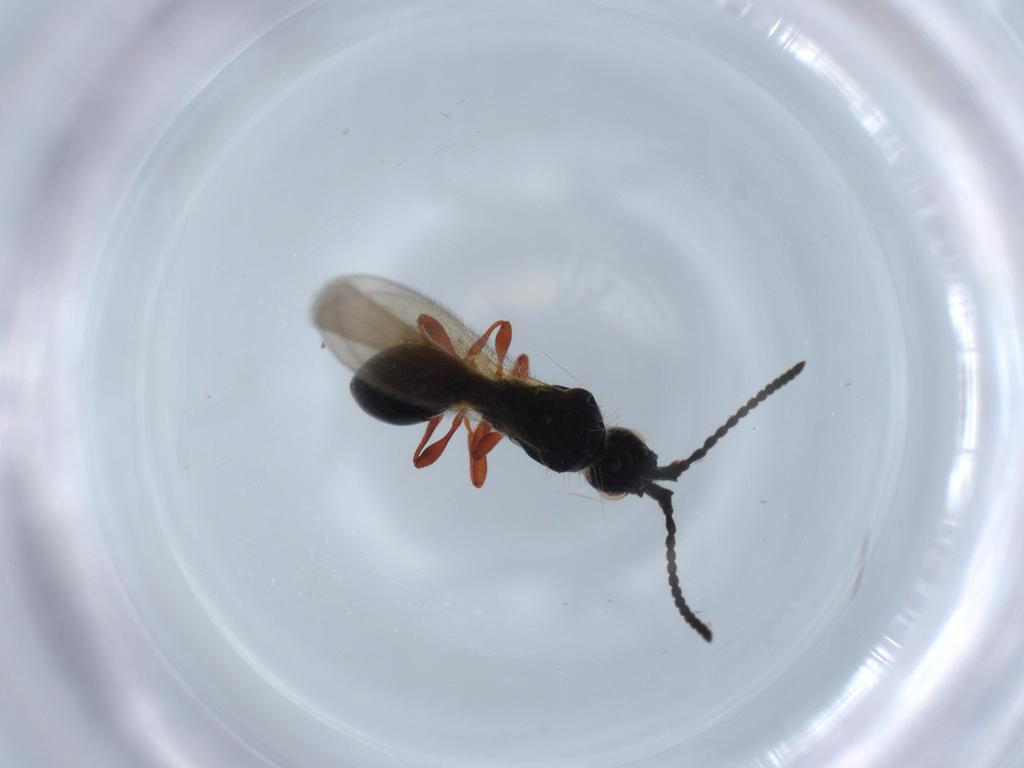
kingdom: Animalia
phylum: Arthropoda
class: Insecta
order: Hymenoptera
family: Diapriidae
